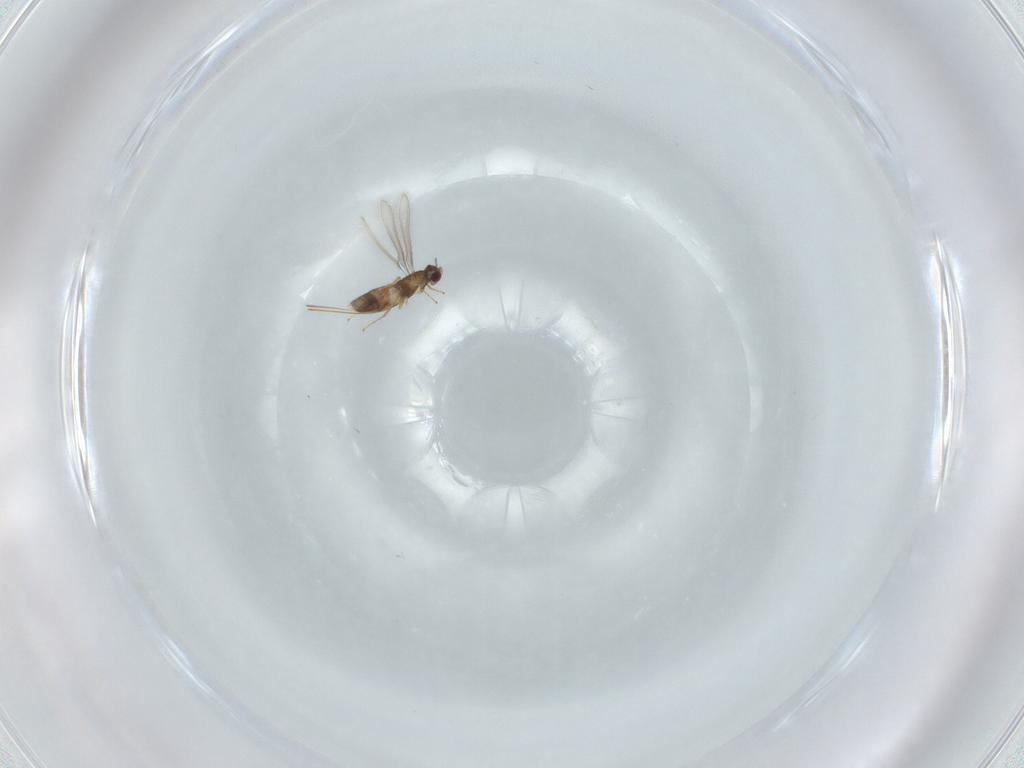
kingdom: Animalia
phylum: Arthropoda
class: Insecta
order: Hymenoptera
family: Mymaridae
